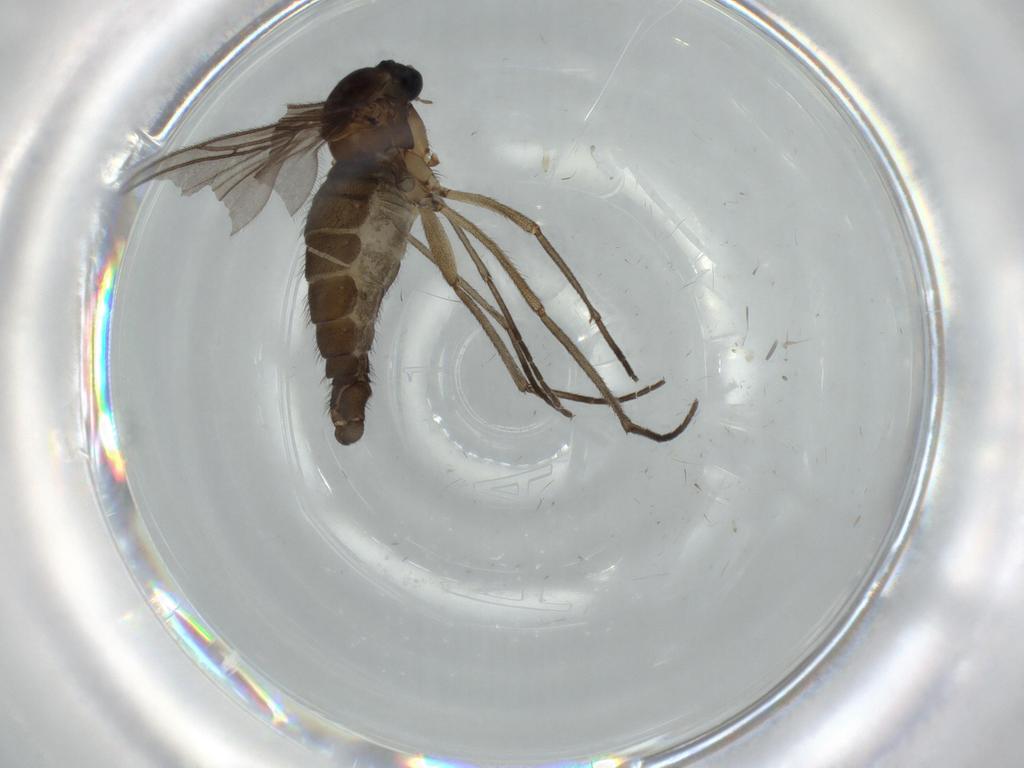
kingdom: Animalia
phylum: Arthropoda
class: Insecta
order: Diptera
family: Sciaridae
